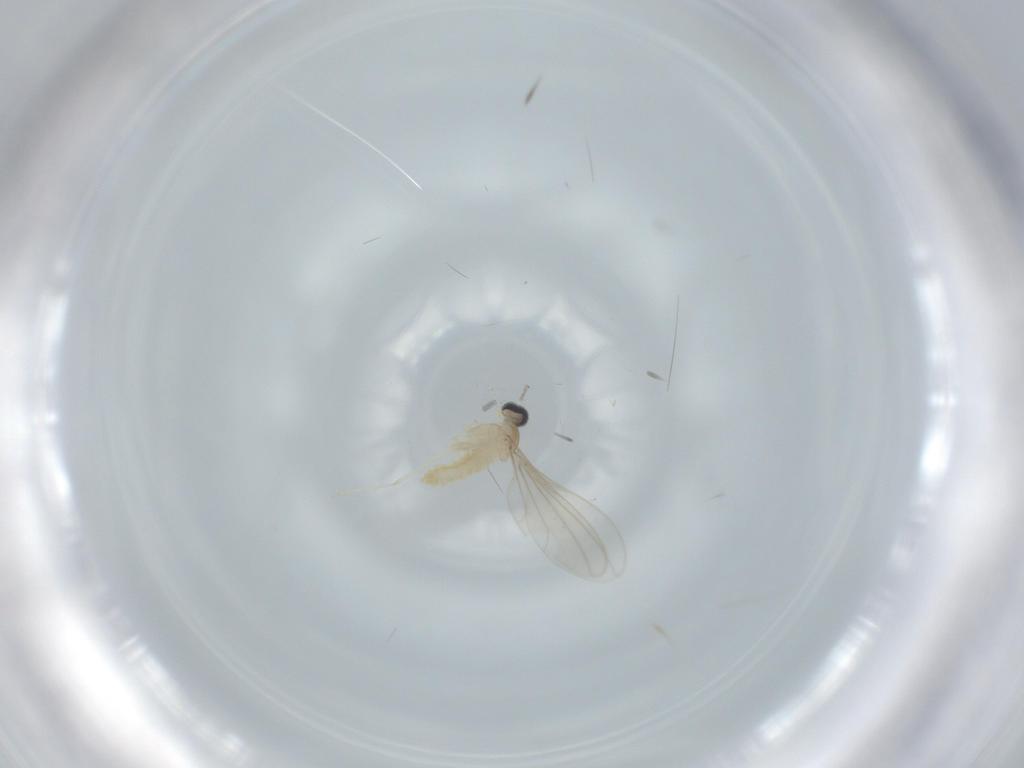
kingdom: Animalia
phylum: Arthropoda
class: Insecta
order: Diptera
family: Cecidomyiidae
